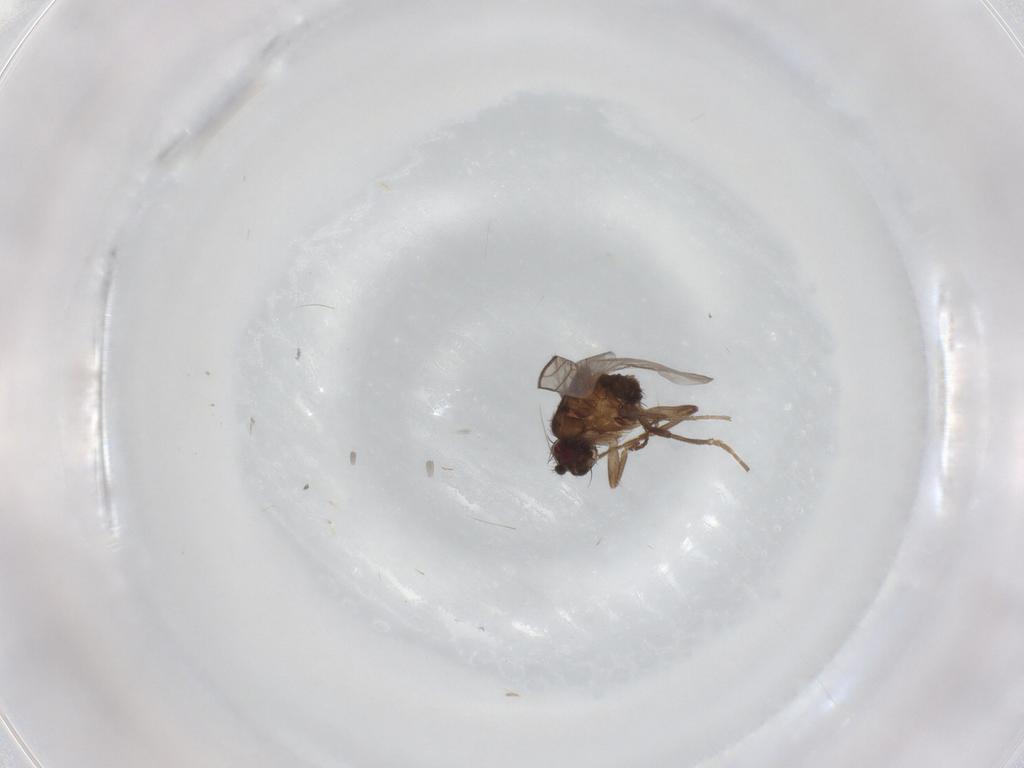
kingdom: Animalia
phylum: Arthropoda
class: Insecta
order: Diptera
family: Sphaeroceridae
